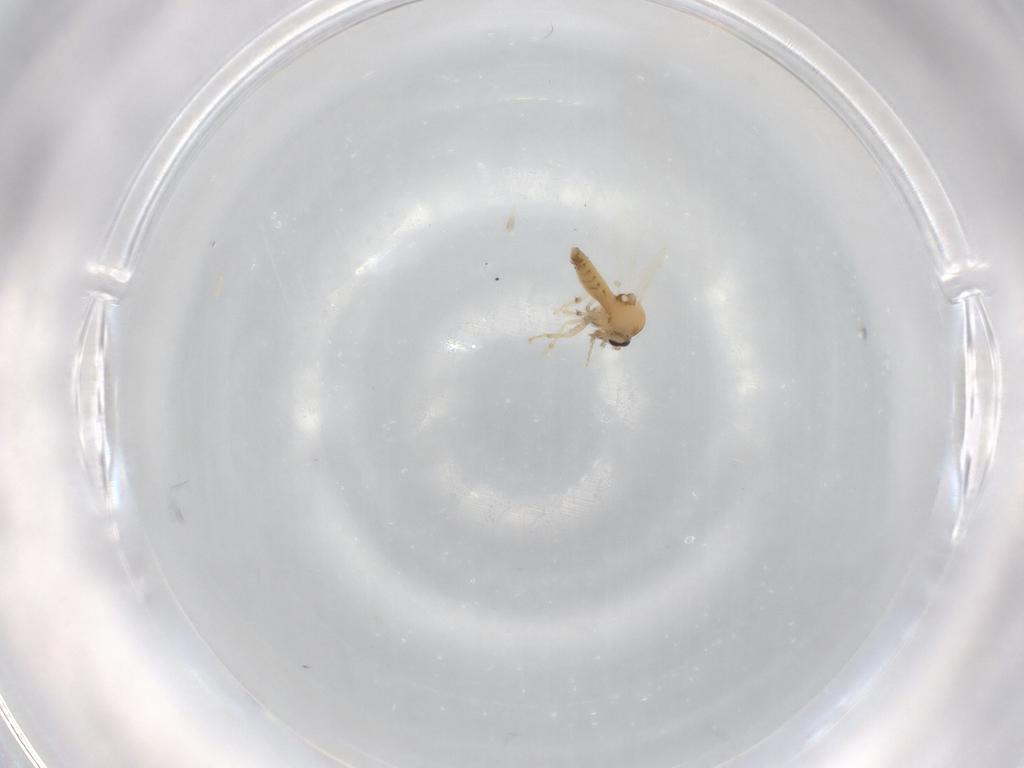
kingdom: Animalia
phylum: Arthropoda
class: Insecta
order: Diptera
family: Ceratopogonidae
